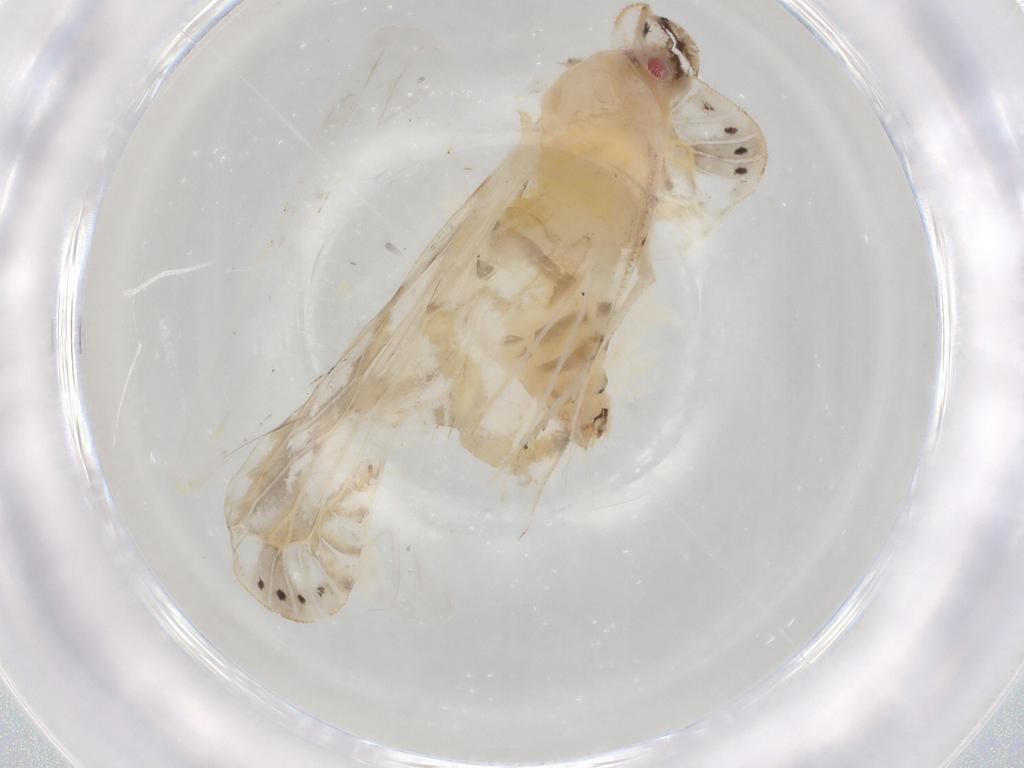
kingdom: Animalia
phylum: Arthropoda
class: Insecta
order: Hemiptera
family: Derbidae
